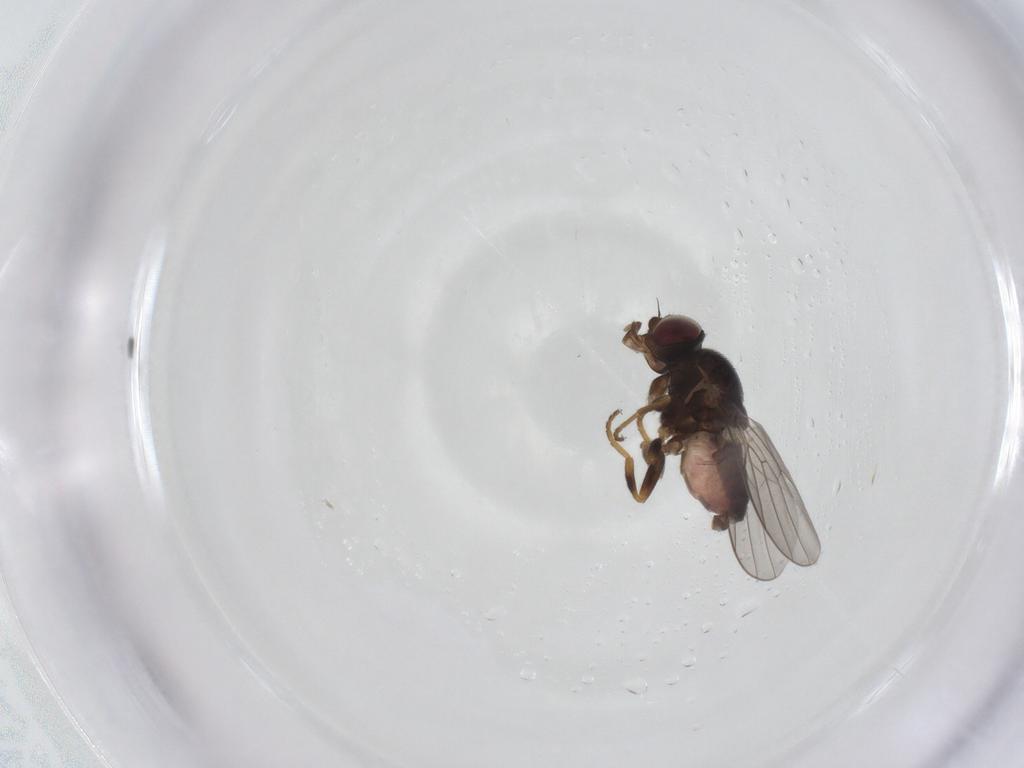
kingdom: Animalia
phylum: Arthropoda
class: Insecta
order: Diptera
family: Chloropidae
